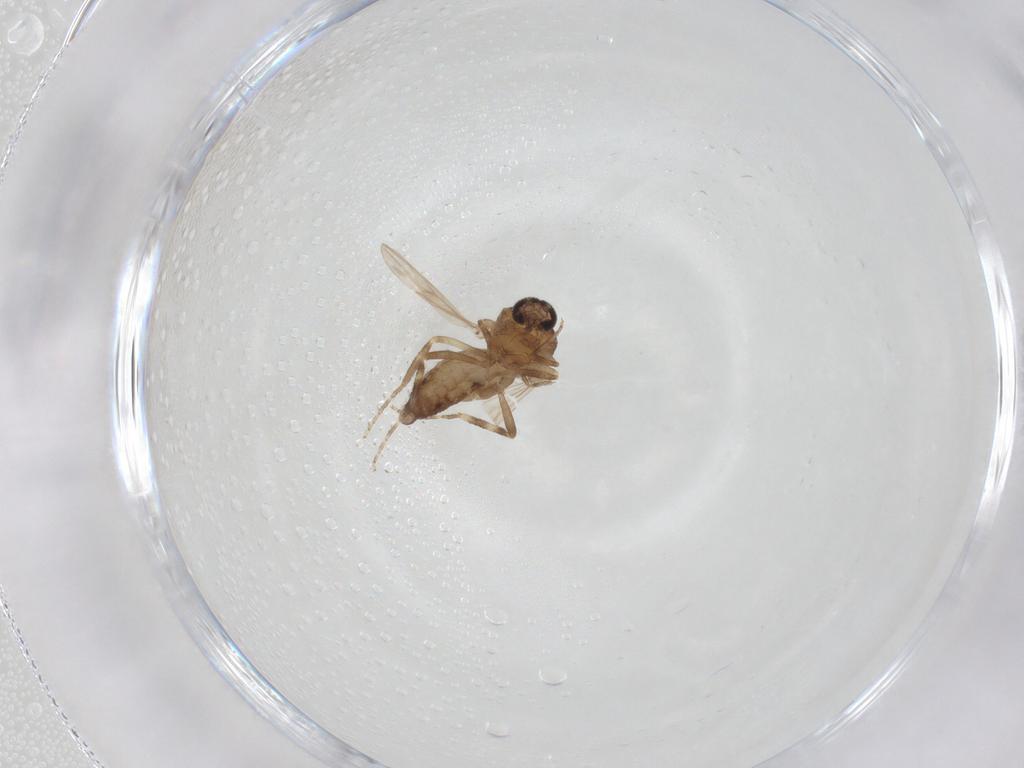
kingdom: Animalia
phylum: Arthropoda
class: Insecta
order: Diptera
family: Ceratopogonidae
